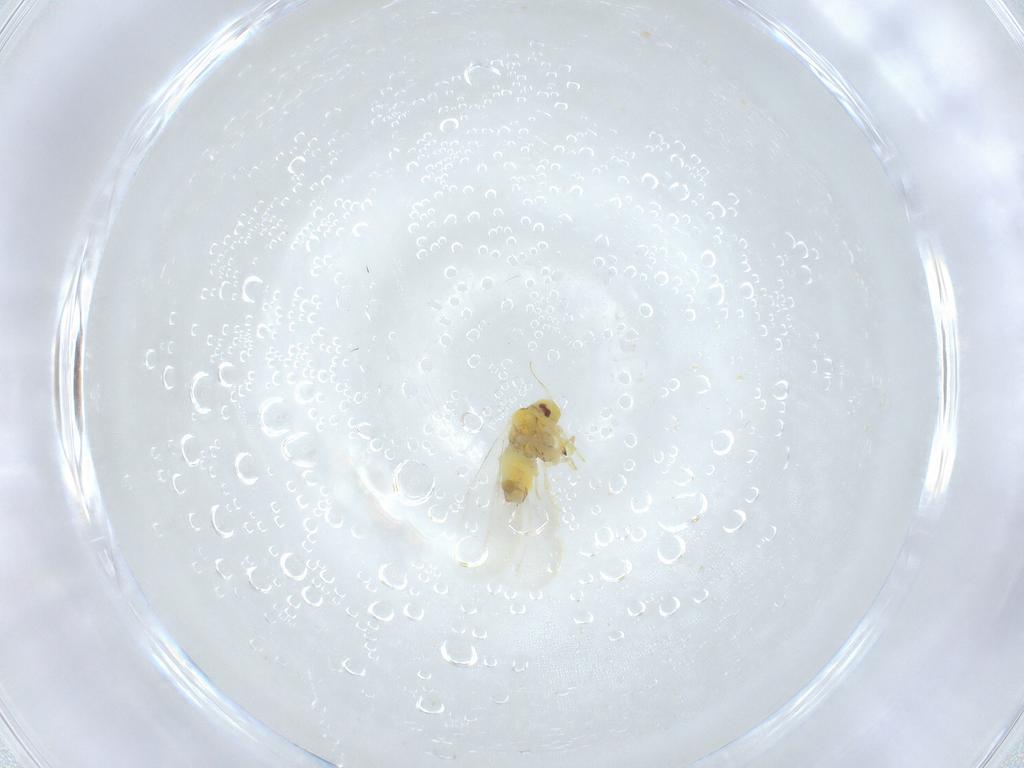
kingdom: Animalia
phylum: Arthropoda
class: Insecta
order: Hemiptera
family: Aleyrodidae
